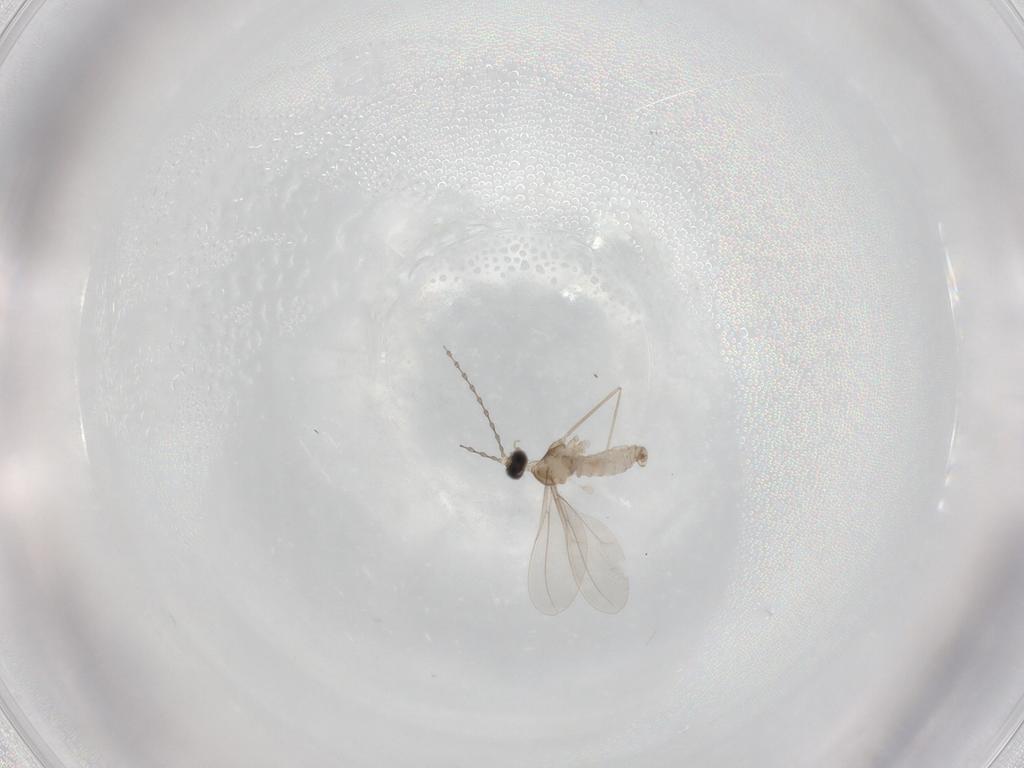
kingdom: Animalia
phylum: Arthropoda
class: Insecta
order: Diptera
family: Cecidomyiidae
